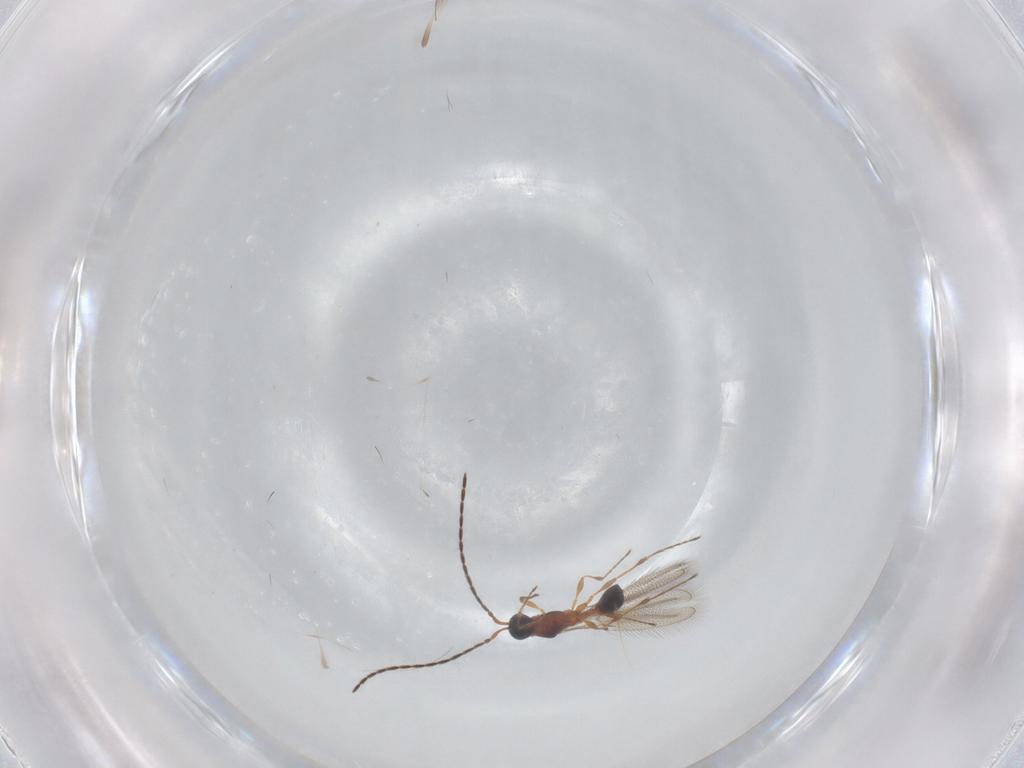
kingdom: Animalia
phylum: Arthropoda
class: Insecta
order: Hymenoptera
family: Diapriidae
